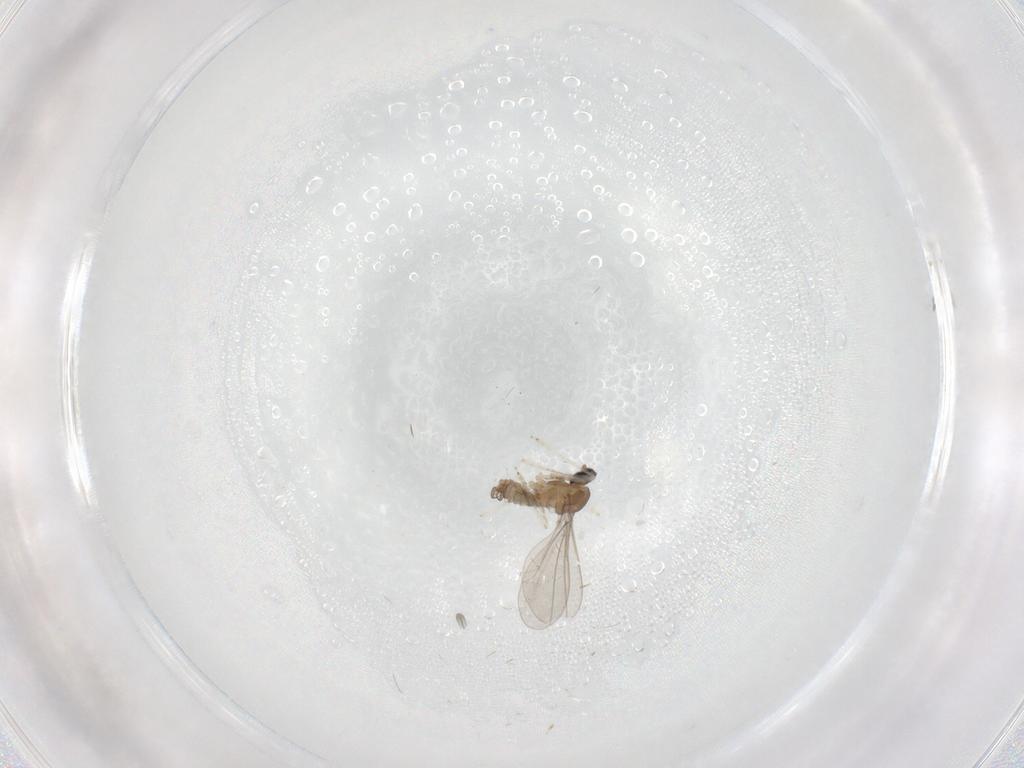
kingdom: Animalia
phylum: Arthropoda
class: Insecta
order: Diptera
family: Cecidomyiidae
